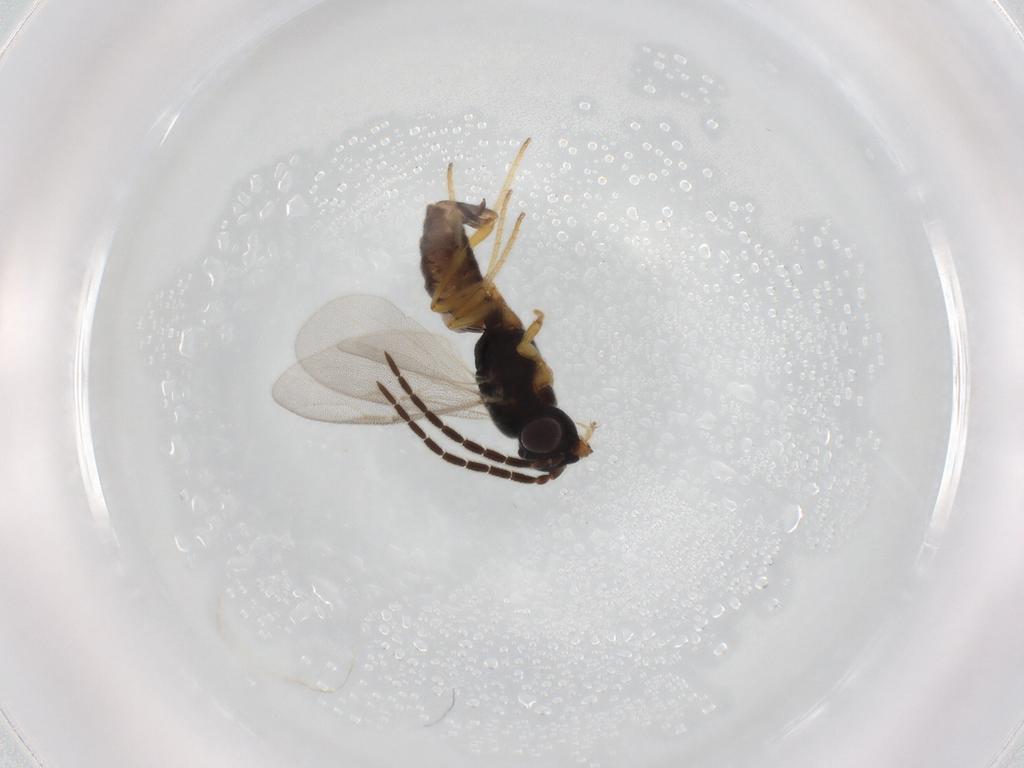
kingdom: Animalia
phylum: Arthropoda
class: Insecta
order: Hymenoptera
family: Dryinidae
